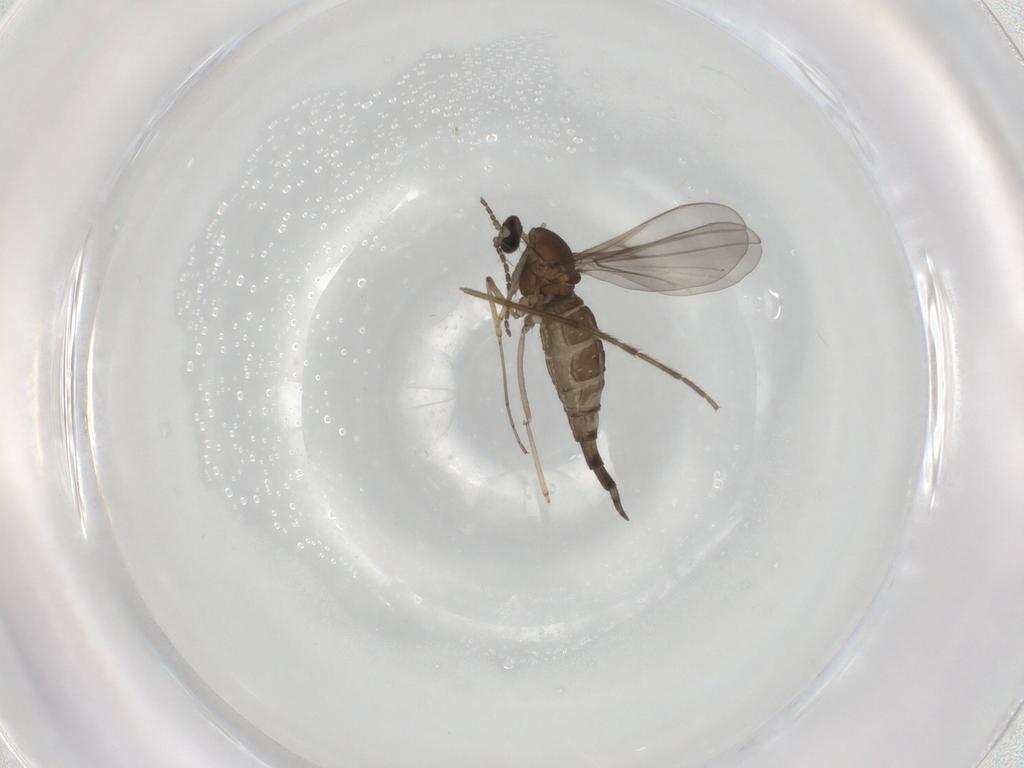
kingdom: Animalia
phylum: Arthropoda
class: Insecta
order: Diptera
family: Chironomidae
